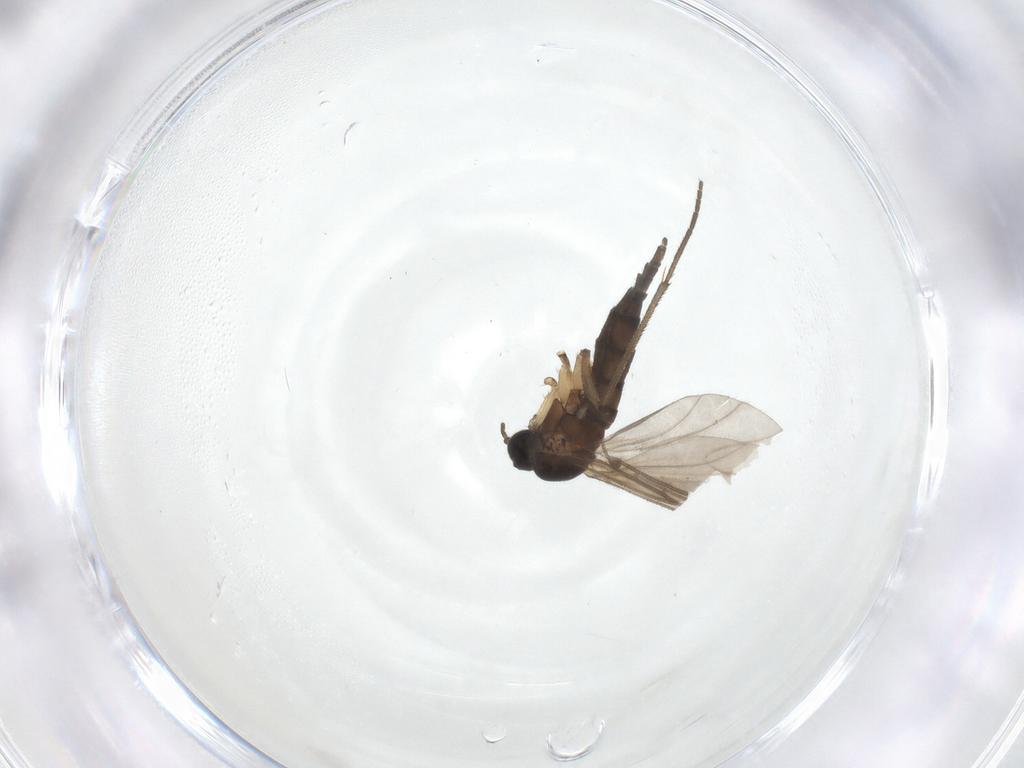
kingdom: Animalia
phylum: Arthropoda
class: Insecta
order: Diptera
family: Sciaridae
